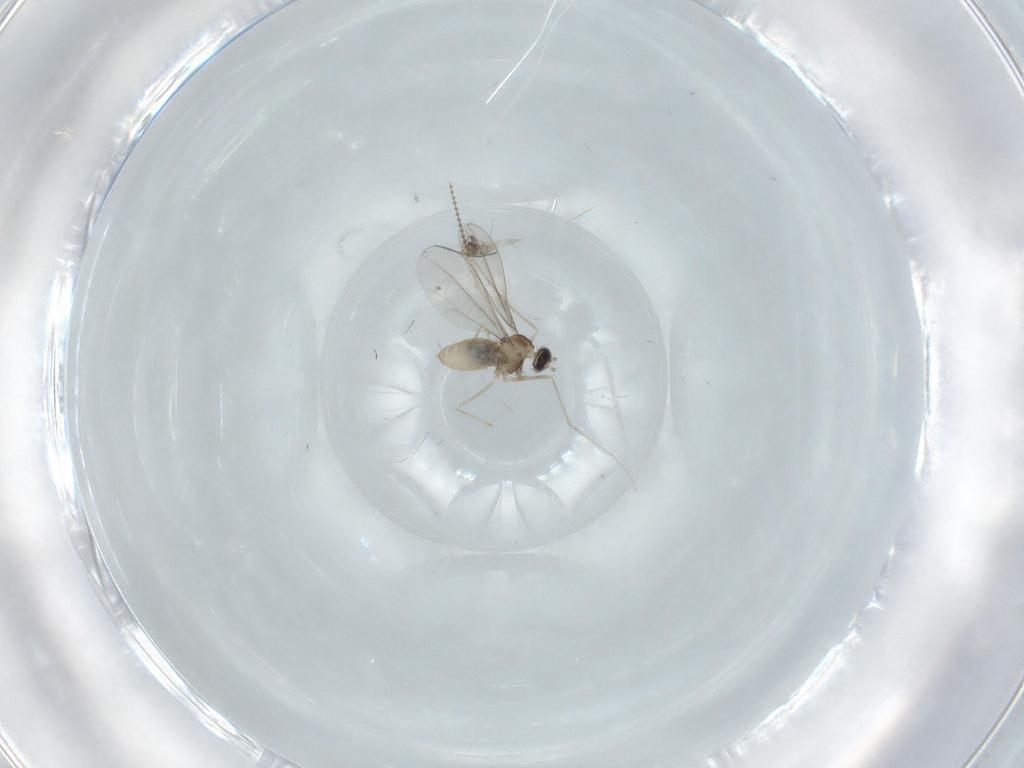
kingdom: Animalia
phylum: Arthropoda
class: Insecta
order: Diptera
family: Cecidomyiidae
